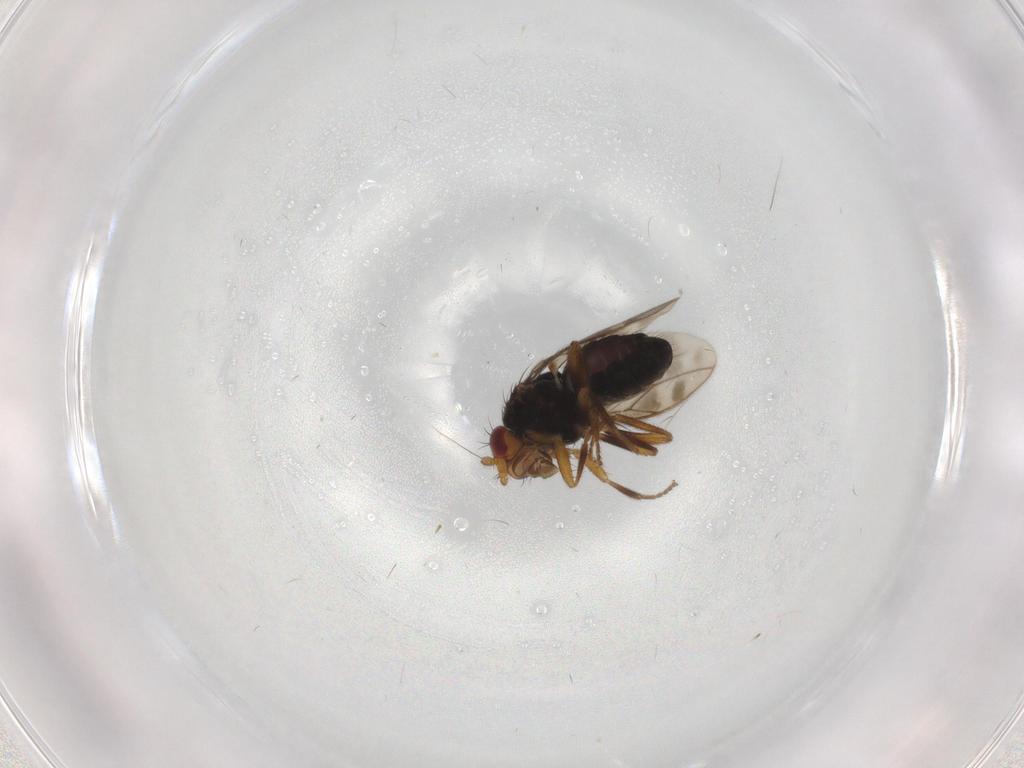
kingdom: Animalia
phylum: Arthropoda
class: Insecta
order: Diptera
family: Sphaeroceridae
